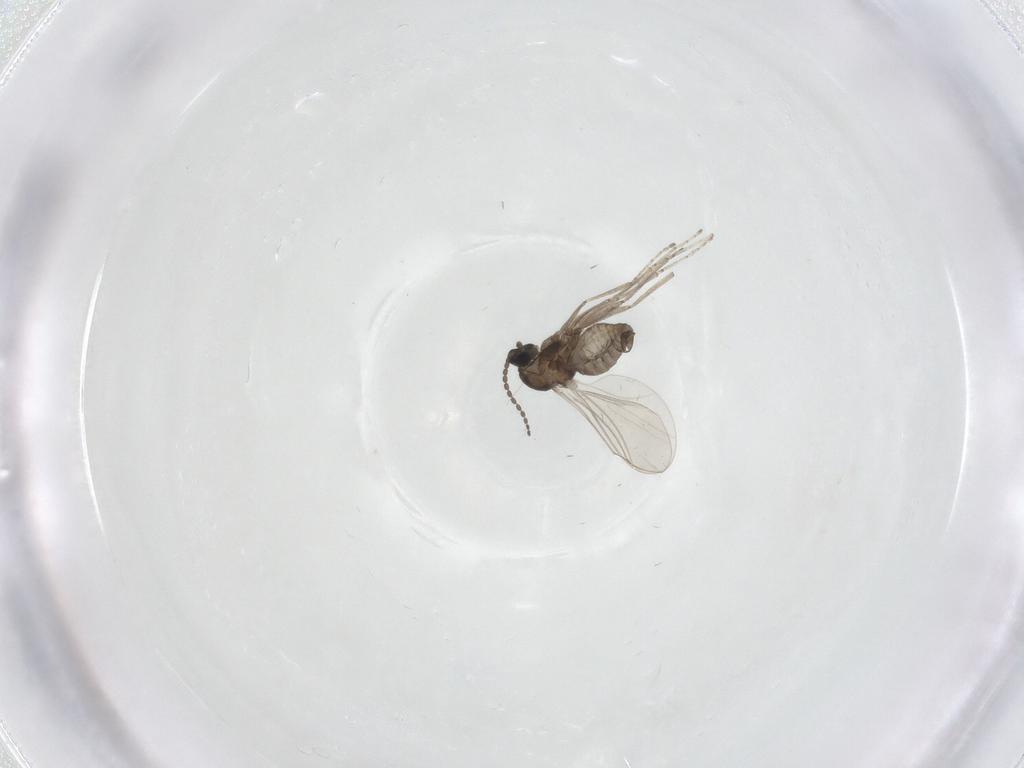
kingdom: Animalia
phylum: Arthropoda
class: Insecta
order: Diptera
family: Cecidomyiidae
